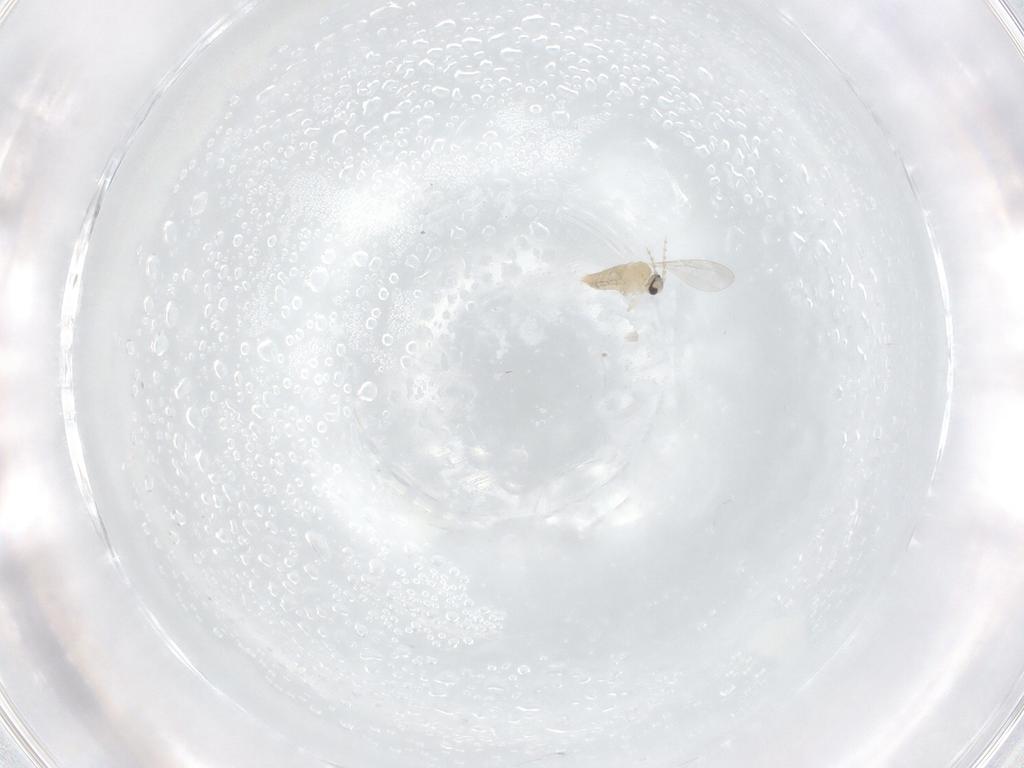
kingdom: Animalia
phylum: Arthropoda
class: Insecta
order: Diptera
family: Cecidomyiidae
